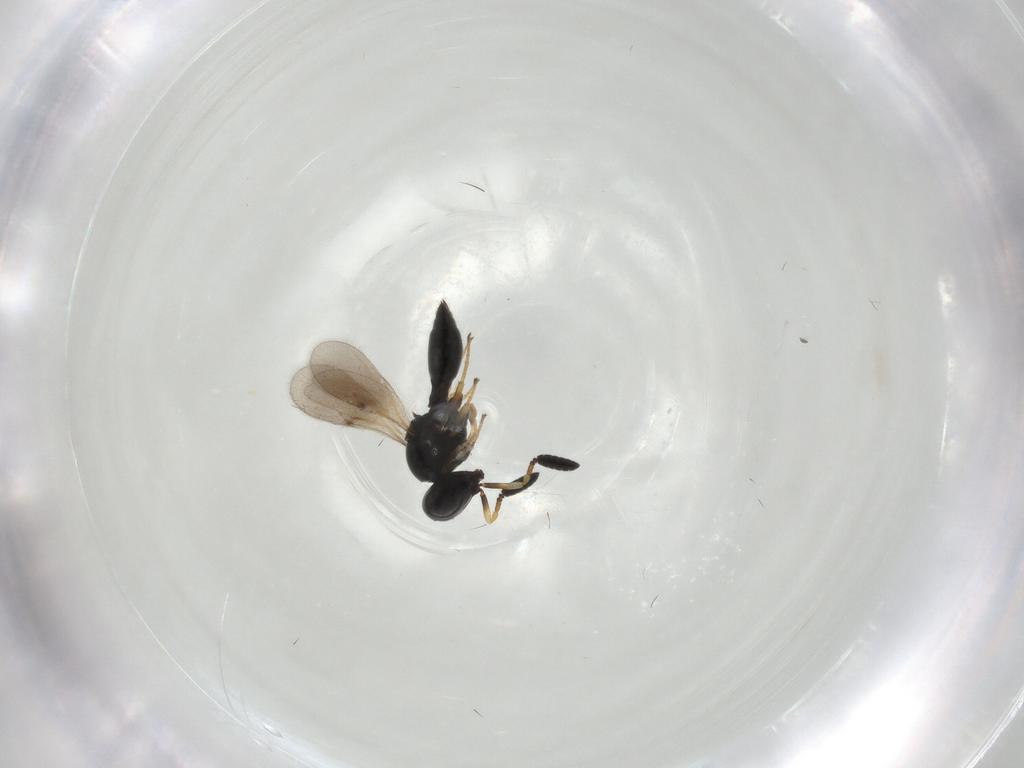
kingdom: Animalia
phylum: Arthropoda
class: Insecta
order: Hymenoptera
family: Scelionidae
